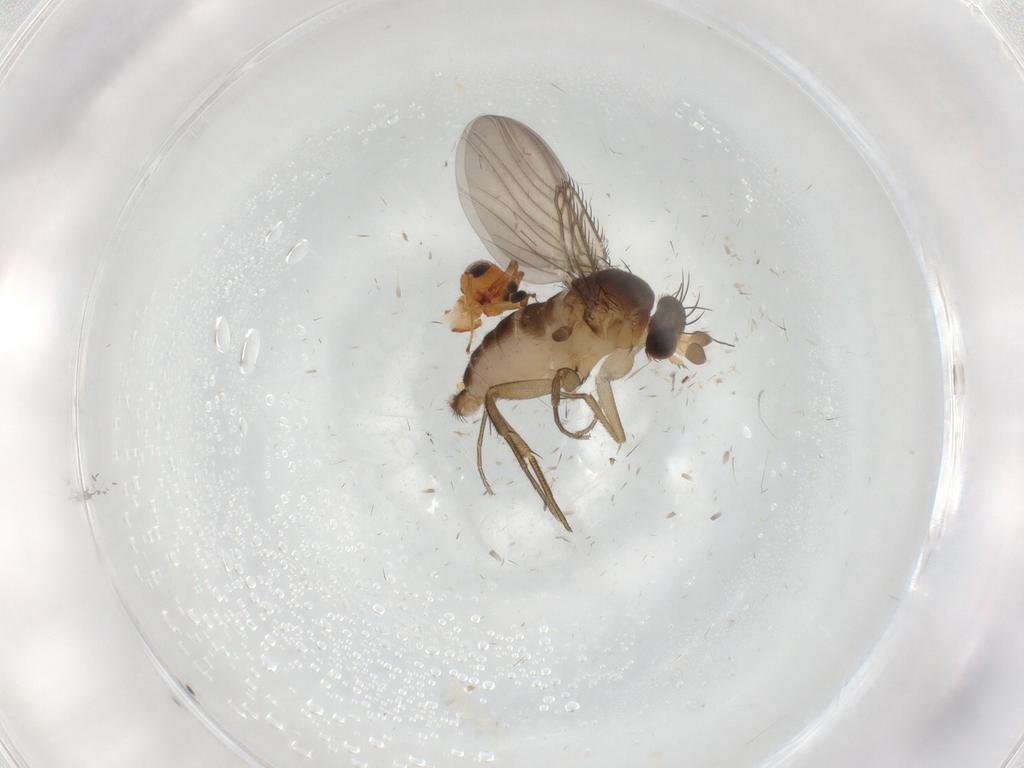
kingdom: Animalia
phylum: Arthropoda
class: Insecta
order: Diptera
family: Phoridae
